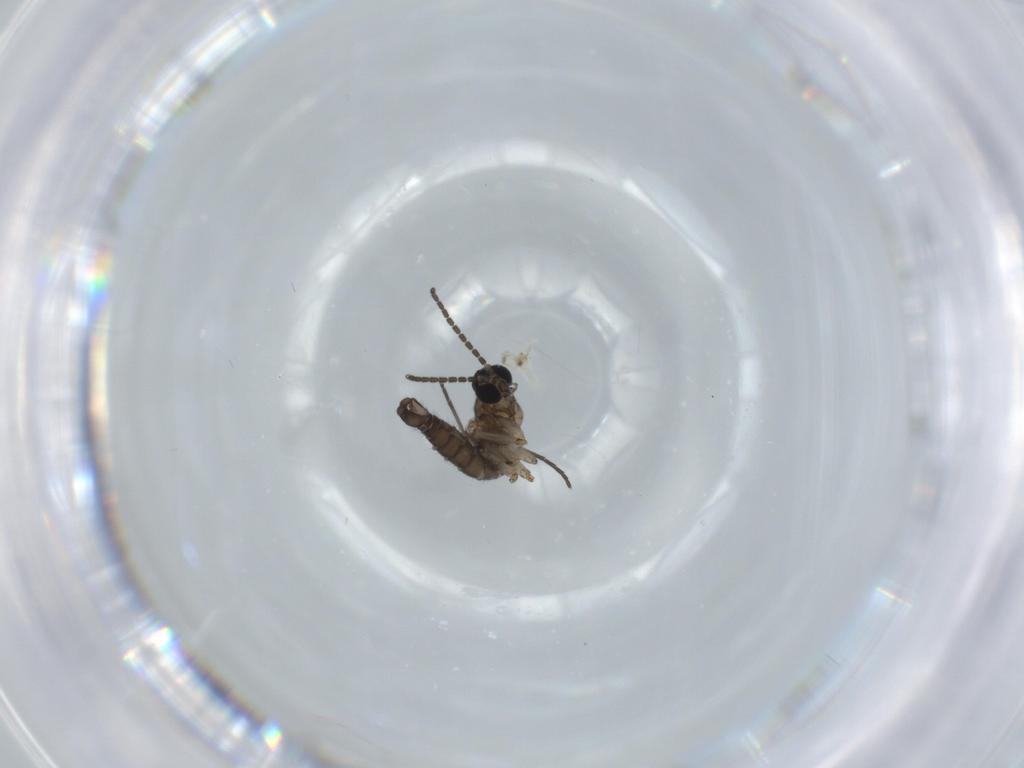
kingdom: Animalia
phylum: Arthropoda
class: Insecta
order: Diptera
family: Sciaridae
